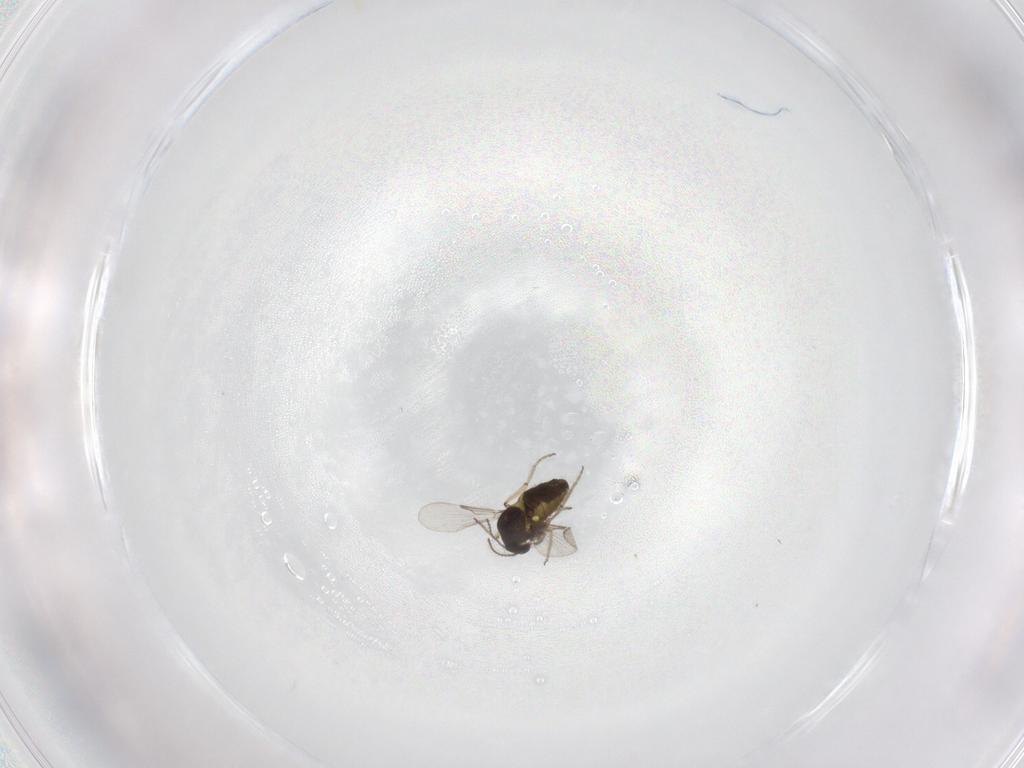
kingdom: Animalia
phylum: Arthropoda
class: Insecta
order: Diptera
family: Ceratopogonidae
